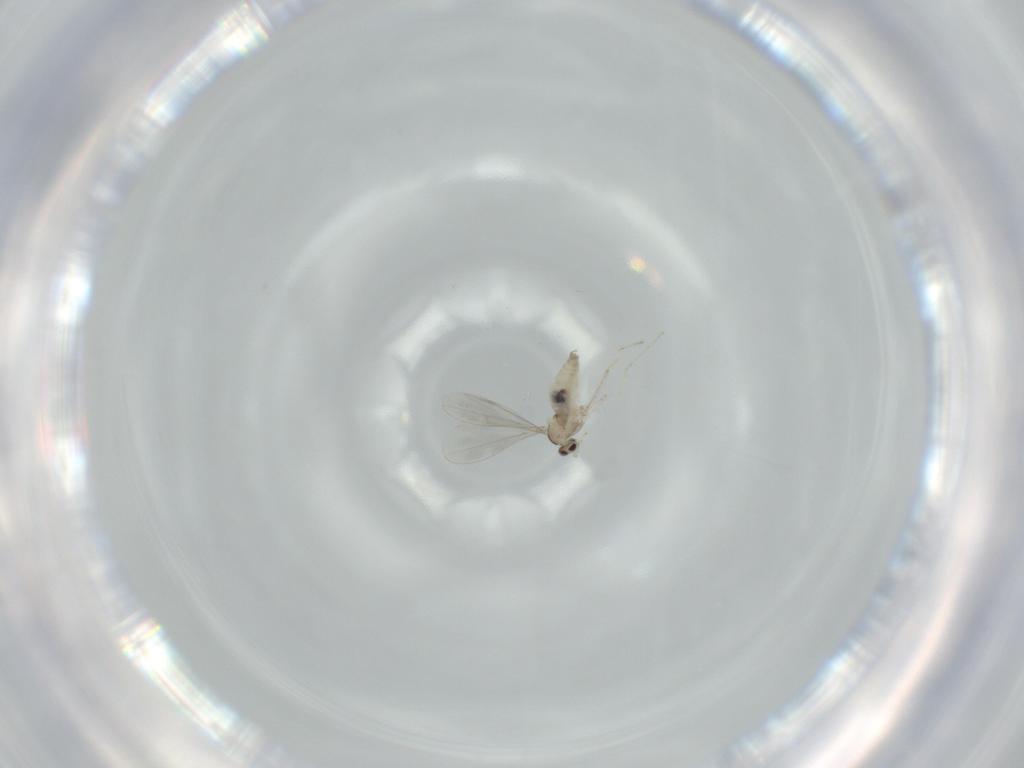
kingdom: Animalia
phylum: Arthropoda
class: Insecta
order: Diptera
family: Cecidomyiidae
